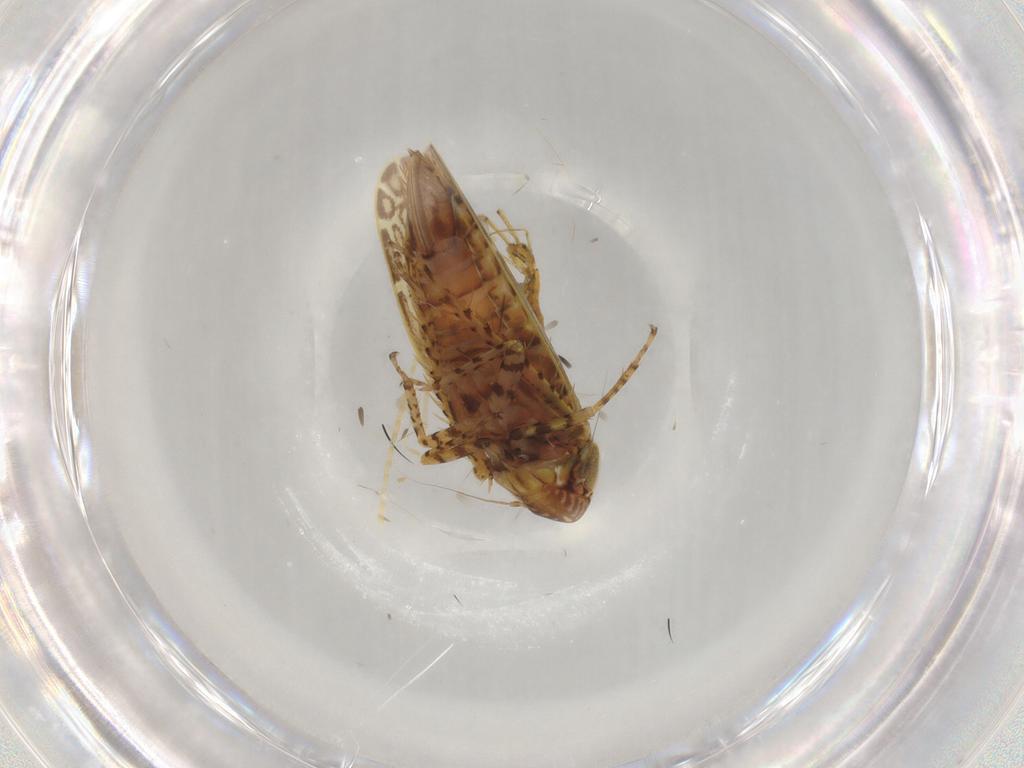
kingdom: Animalia
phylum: Arthropoda
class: Insecta
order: Hemiptera
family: Cicadellidae
